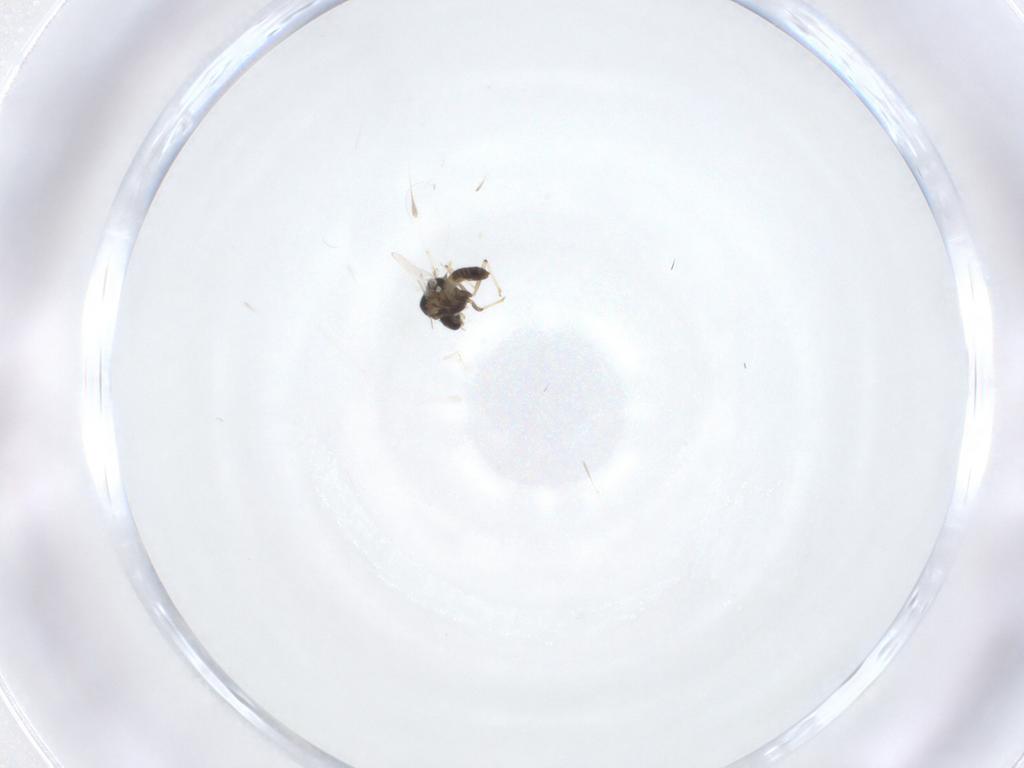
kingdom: Animalia
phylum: Arthropoda
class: Insecta
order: Diptera
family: Chironomidae
